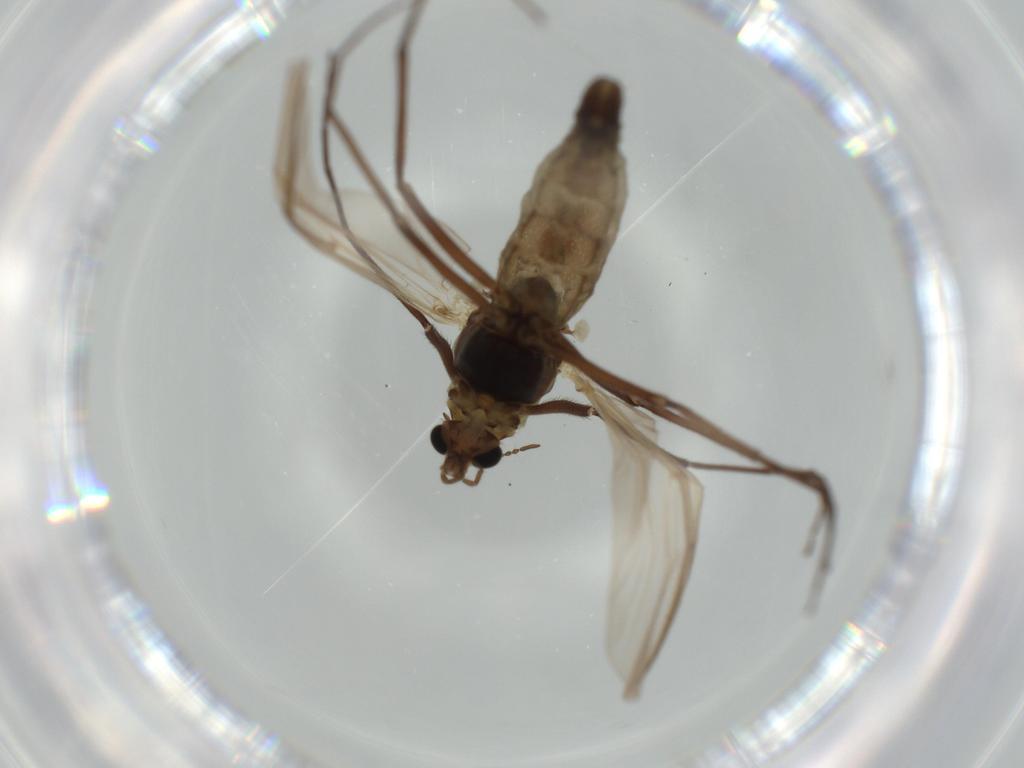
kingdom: Animalia
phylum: Arthropoda
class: Insecta
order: Diptera
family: Sphaeroceridae
